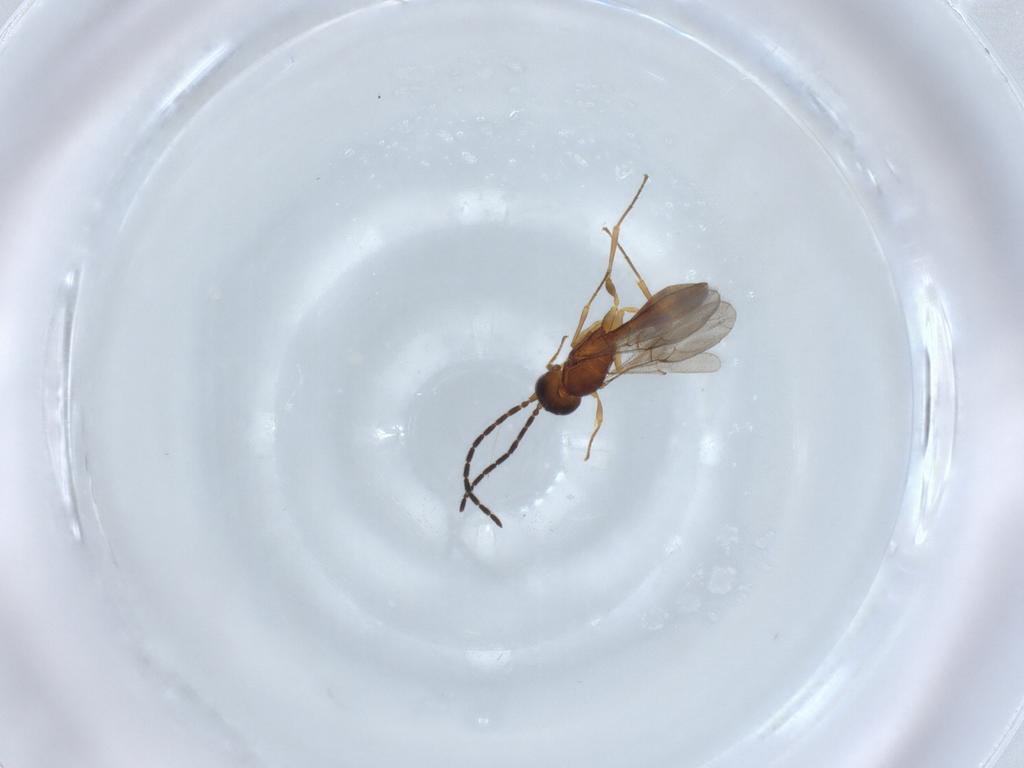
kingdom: Animalia
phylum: Arthropoda
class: Insecta
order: Hymenoptera
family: Scelionidae
